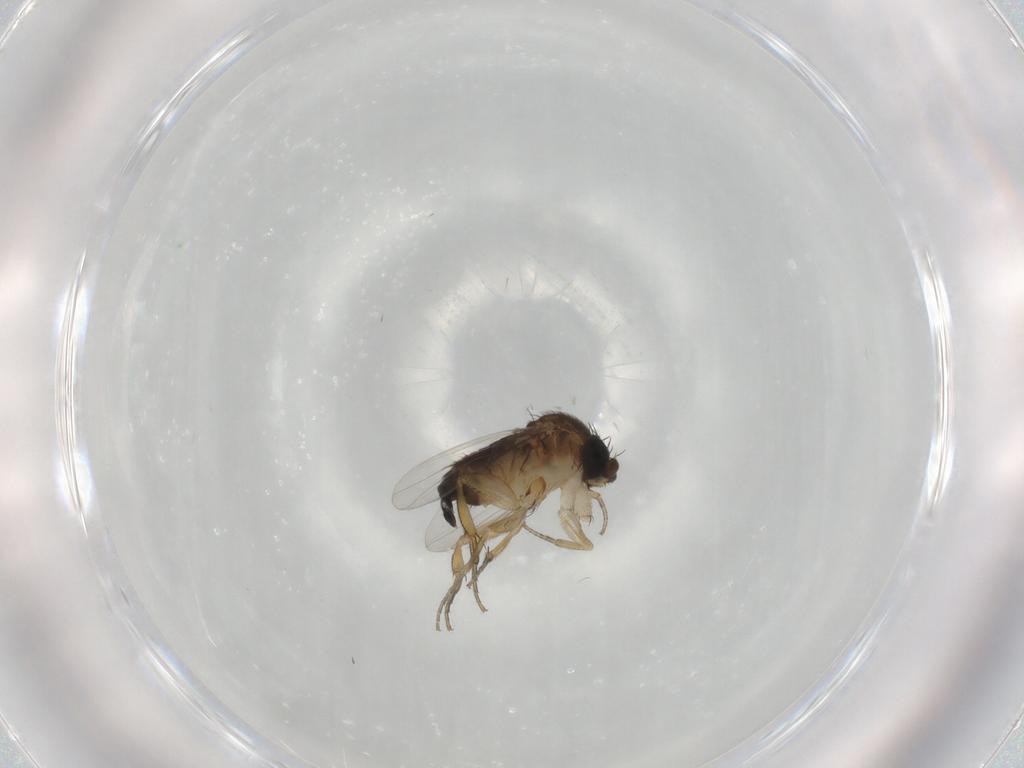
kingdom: Animalia
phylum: Arthropoda
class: Insecta
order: Diptera
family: Phoridae
